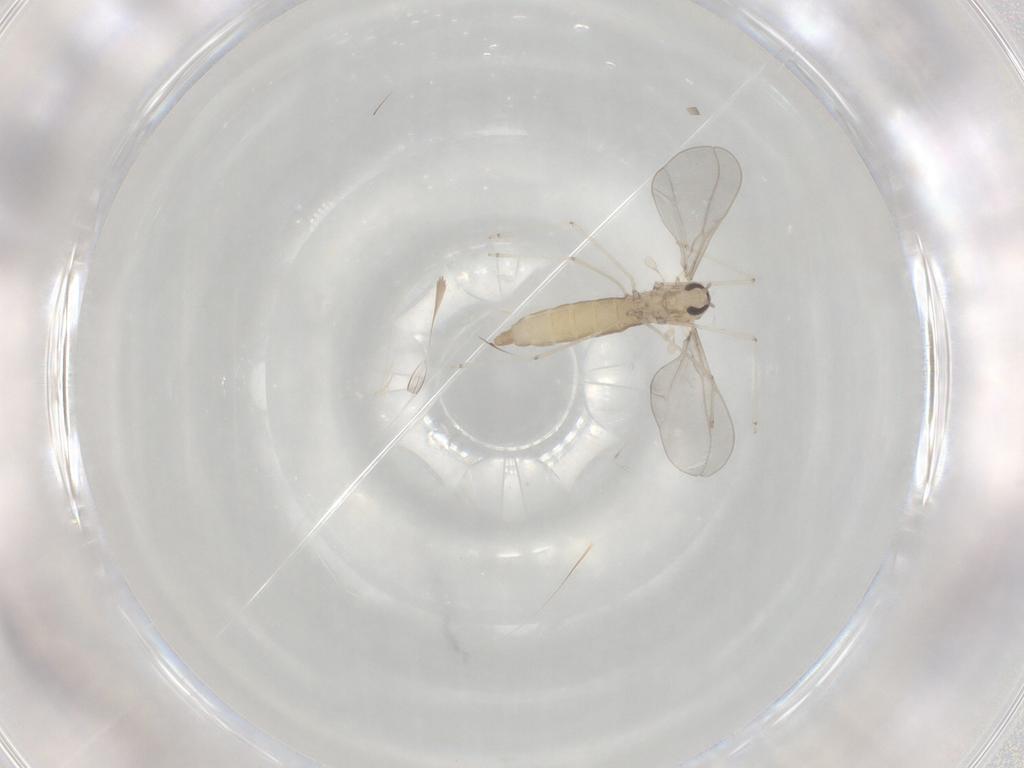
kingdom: Animalia
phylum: Arthropoda
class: Insecta
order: Diptera
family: Cecidomyiidae
